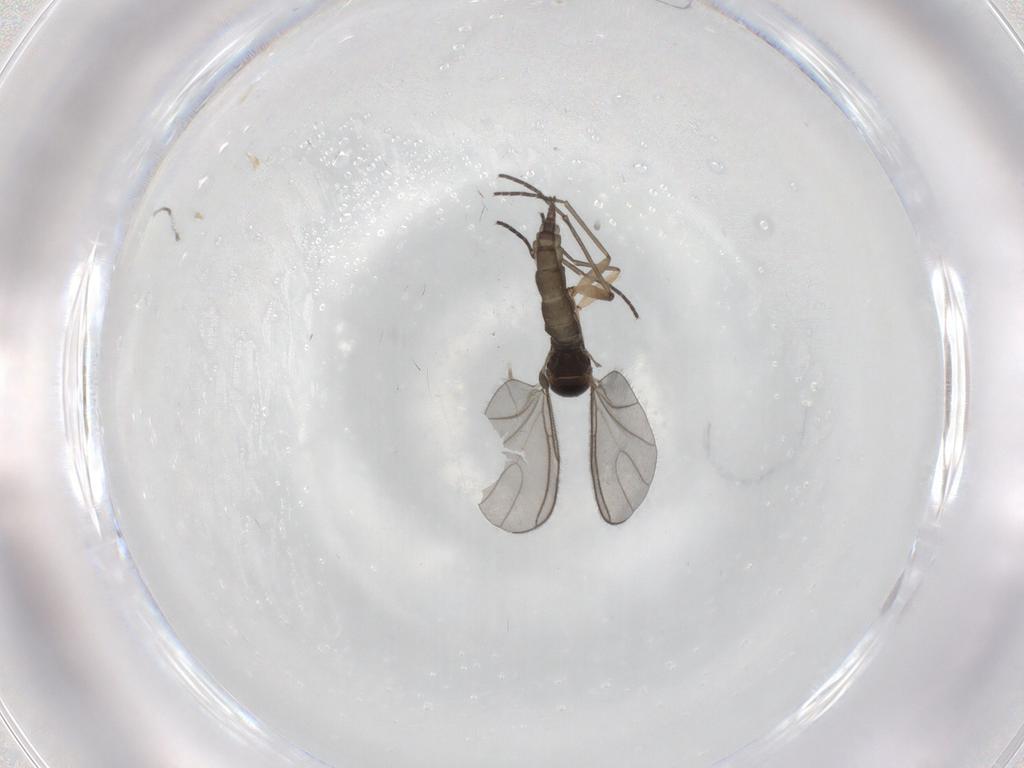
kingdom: Animalia
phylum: Arthropoda
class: Insecta
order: Diptera
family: Sciaridae
